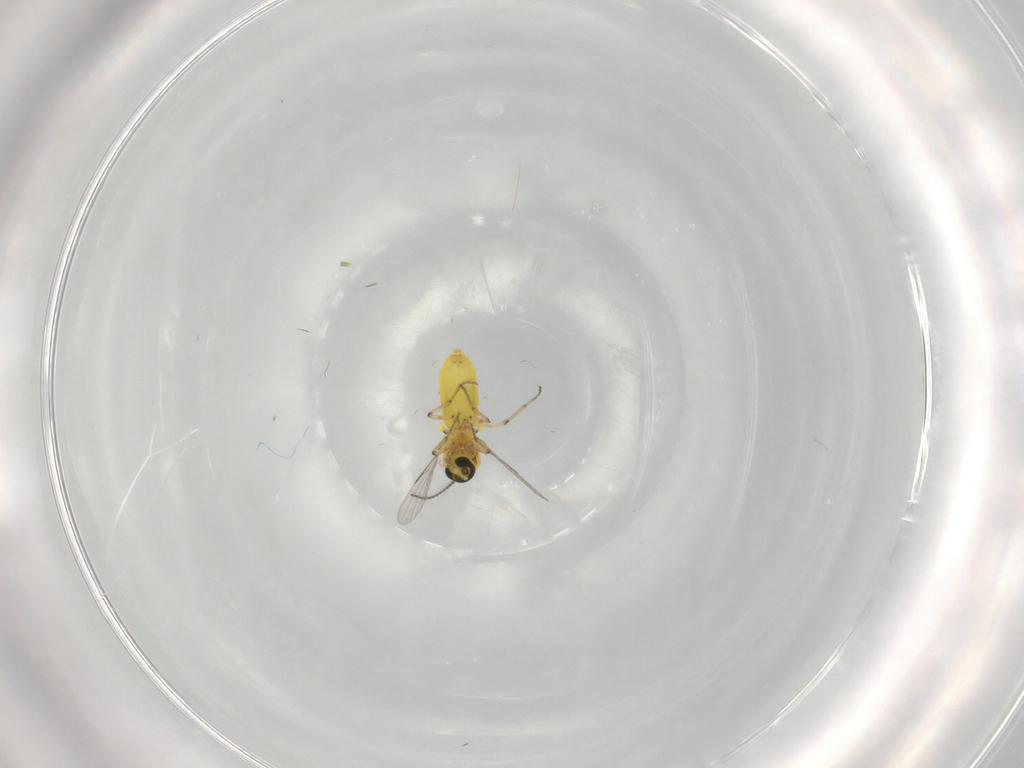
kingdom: Animalia
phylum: Arthropoda
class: Insecta
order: Diptera
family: Ceratopogonidae
